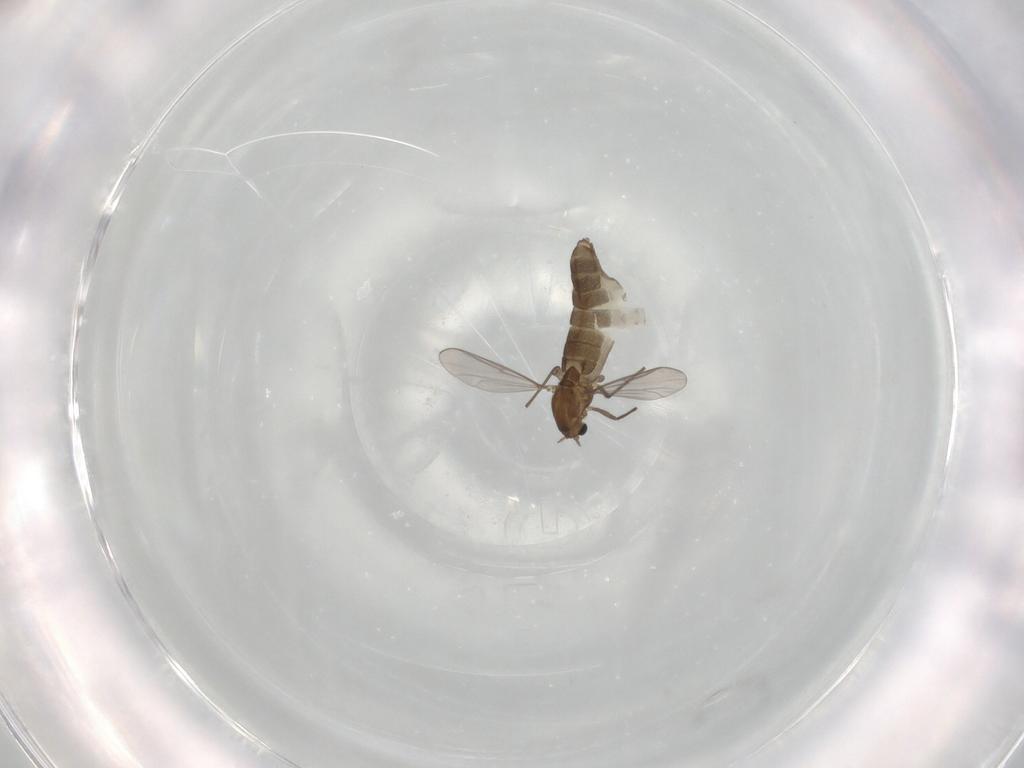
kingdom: Animalia
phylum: Arthropoda
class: Insecta
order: Diptera
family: Chironomidae
